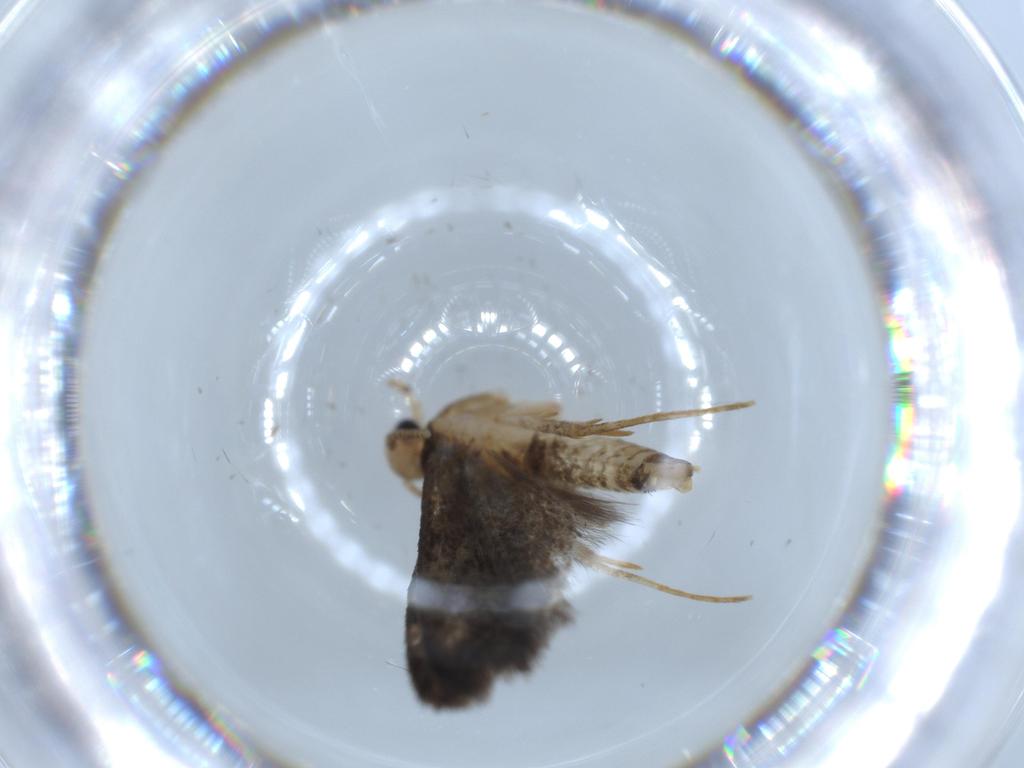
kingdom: Animalia
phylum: Arthropoda
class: Insecta
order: Lepidoptera
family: Tineidae
